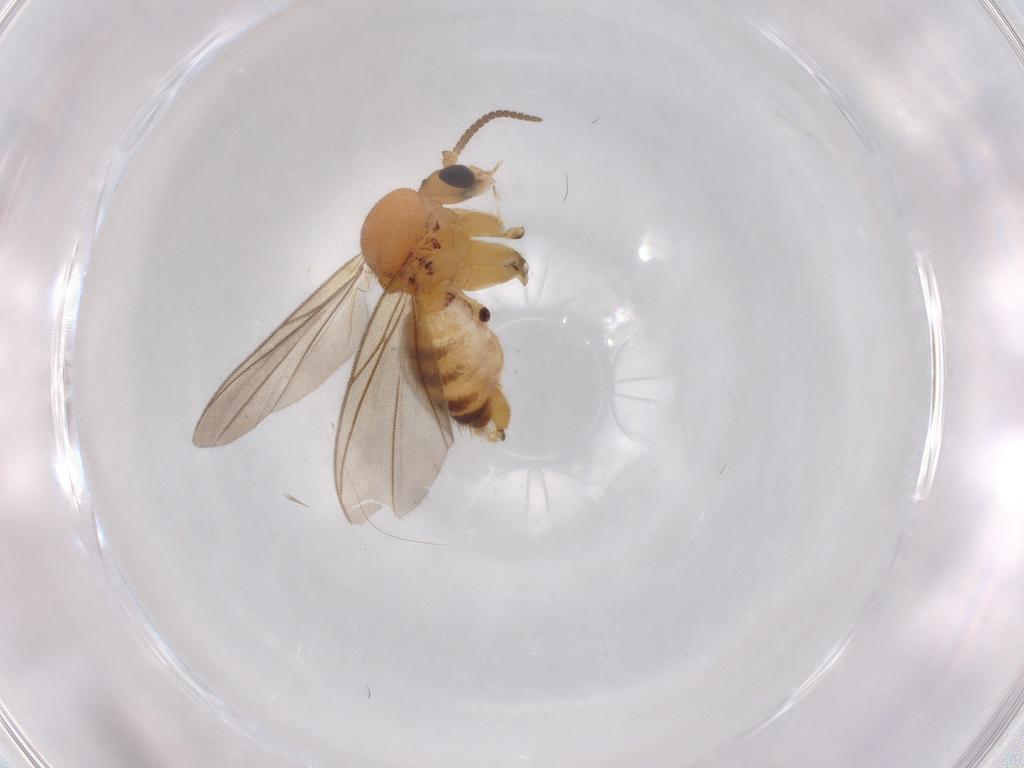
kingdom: Animalia
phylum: Arthropoda
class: Insecta
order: Diptera
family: Mycetophilidae
